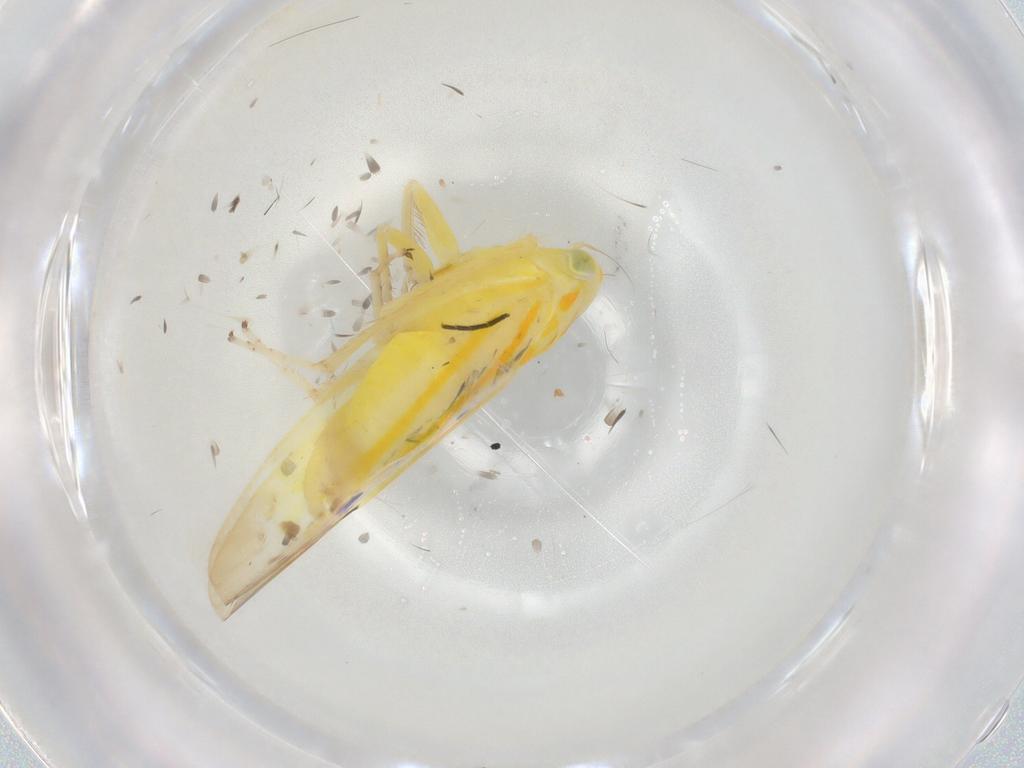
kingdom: Animalia
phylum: Arthropoda
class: Insecta
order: Hemiptera
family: Cicadellidae
